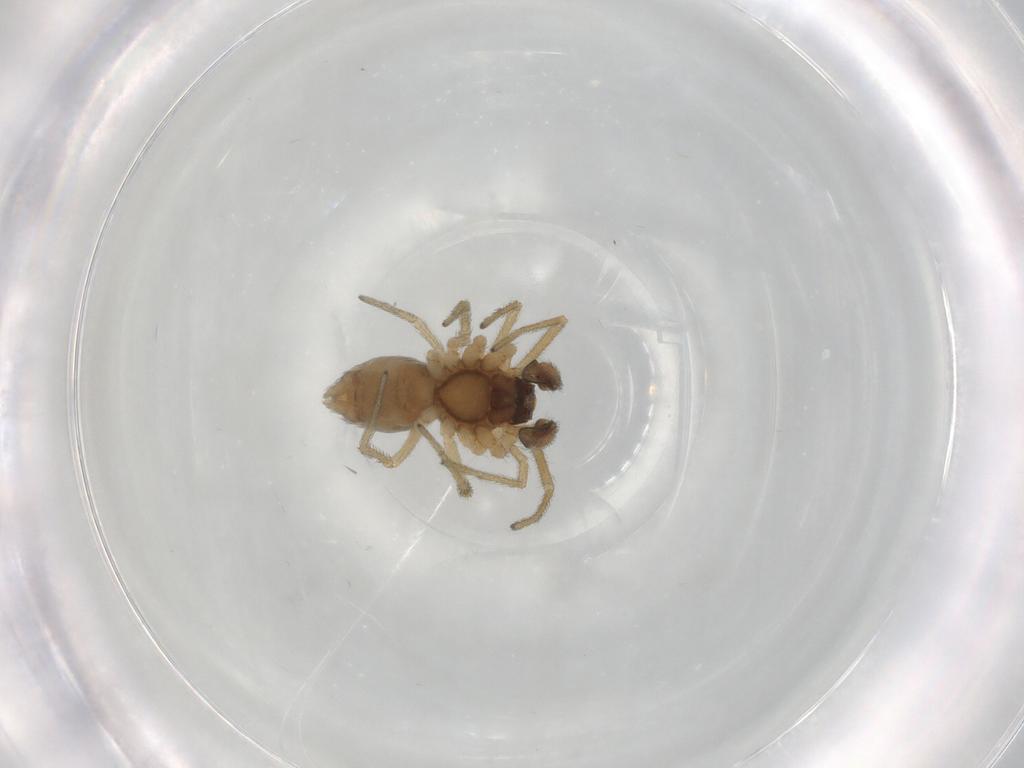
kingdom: Animalia
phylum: Arthropoda
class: Arachnida
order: Araneae
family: Dictynidae
